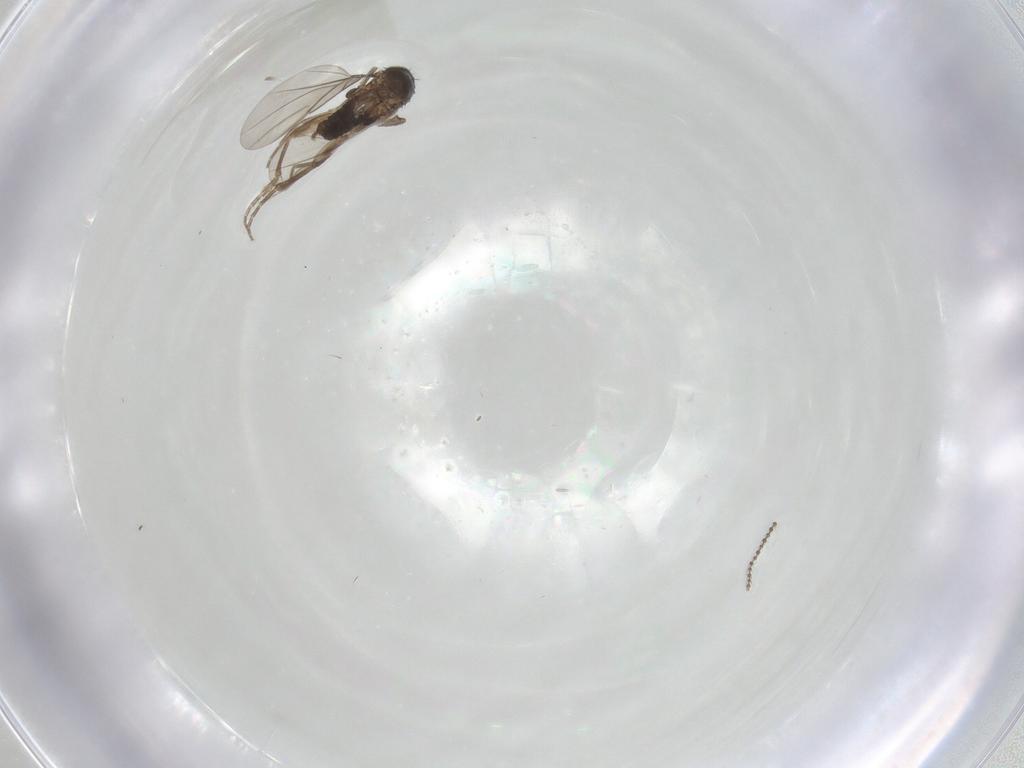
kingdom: Animalia
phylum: Arthropoda
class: Insecta
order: Diptera
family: Cecidomyiidae
